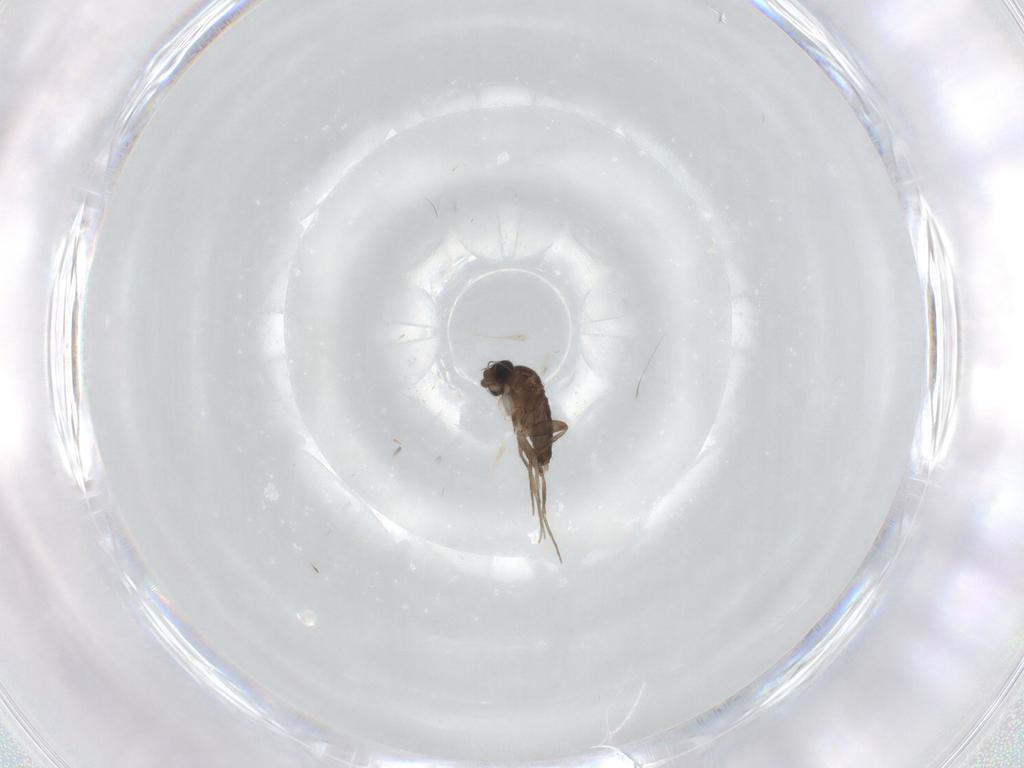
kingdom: Animalia
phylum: Arthropoda
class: Insecta
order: Diptera
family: Phoridae
